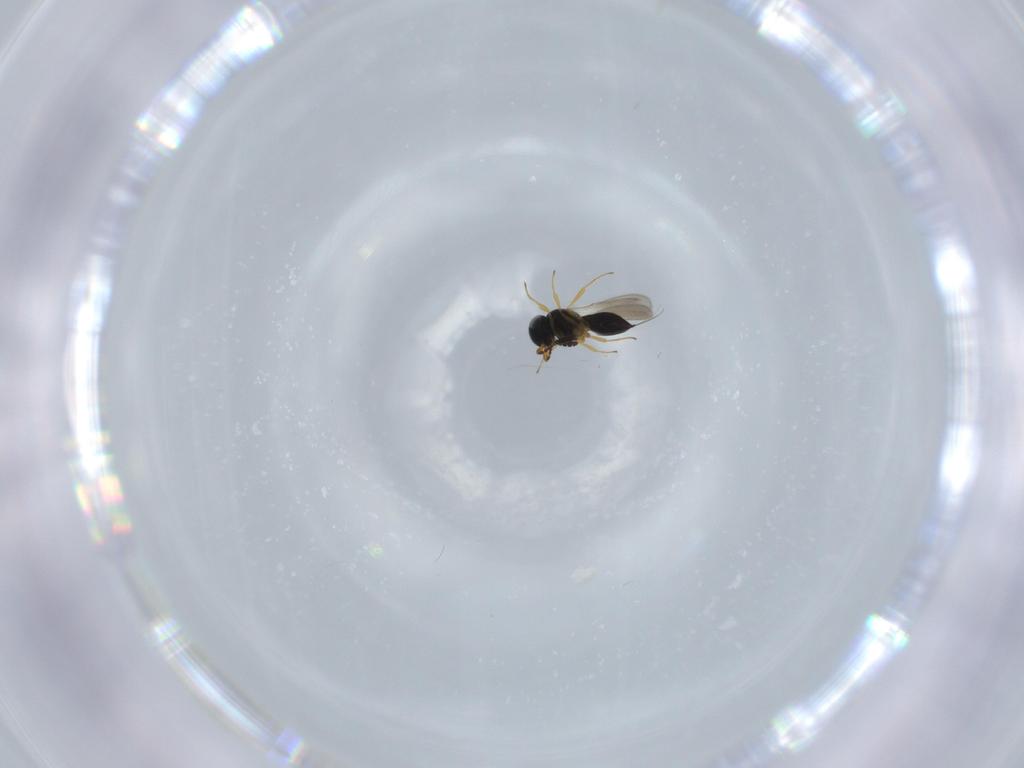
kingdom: Animalia
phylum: Arthropoda
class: Insecta
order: Hymenoptera
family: Scelionidae
